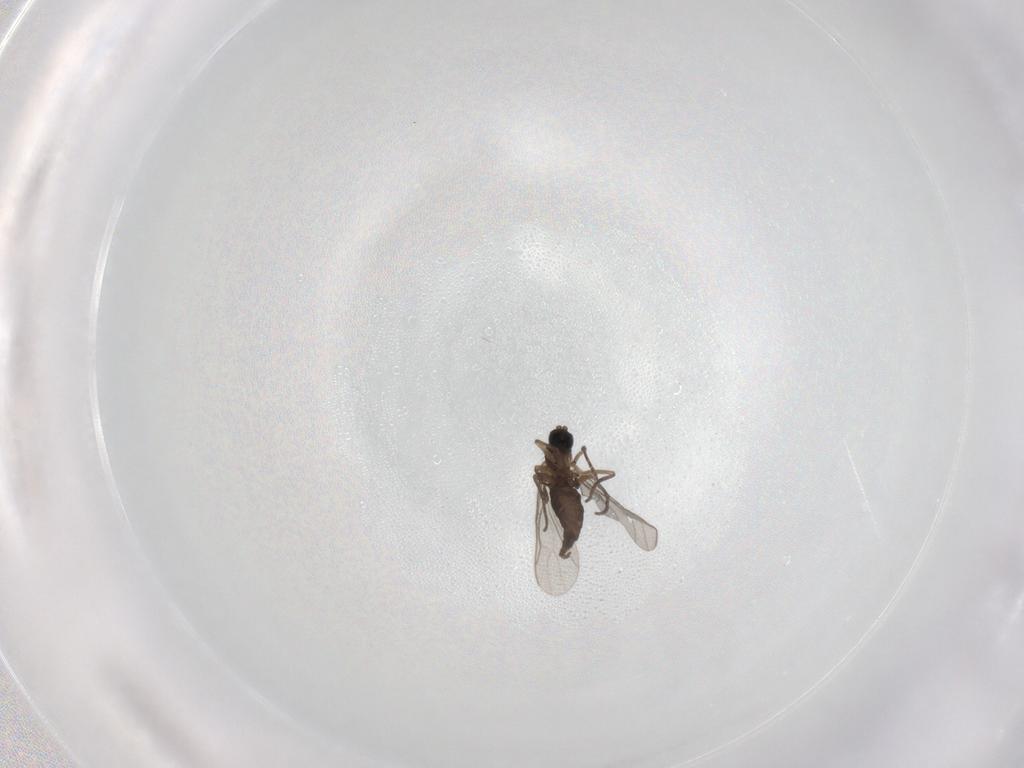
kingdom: Animalia
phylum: Arthropoda
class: Insecta
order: Diptera
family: Sciaridae
